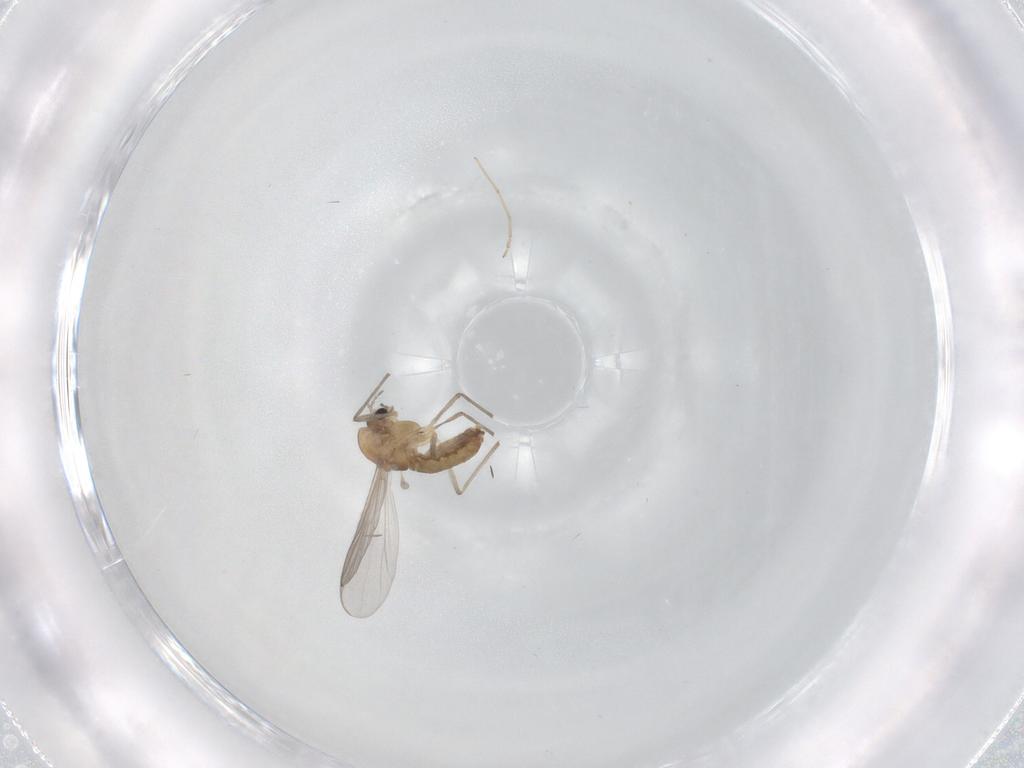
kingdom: Animalia
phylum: Arthropoda
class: Insecta
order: Diptera
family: Chironomidae
